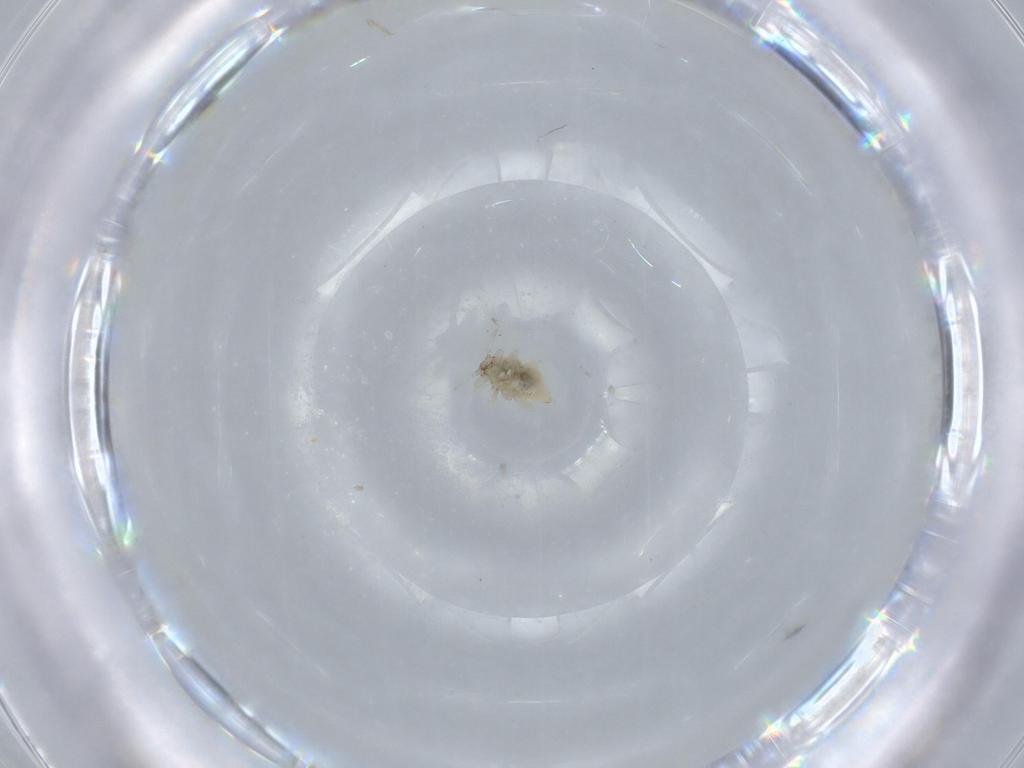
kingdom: Animalia
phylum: Arthropoda
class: Insecta
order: Neuroptera
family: Coniopterygidae
